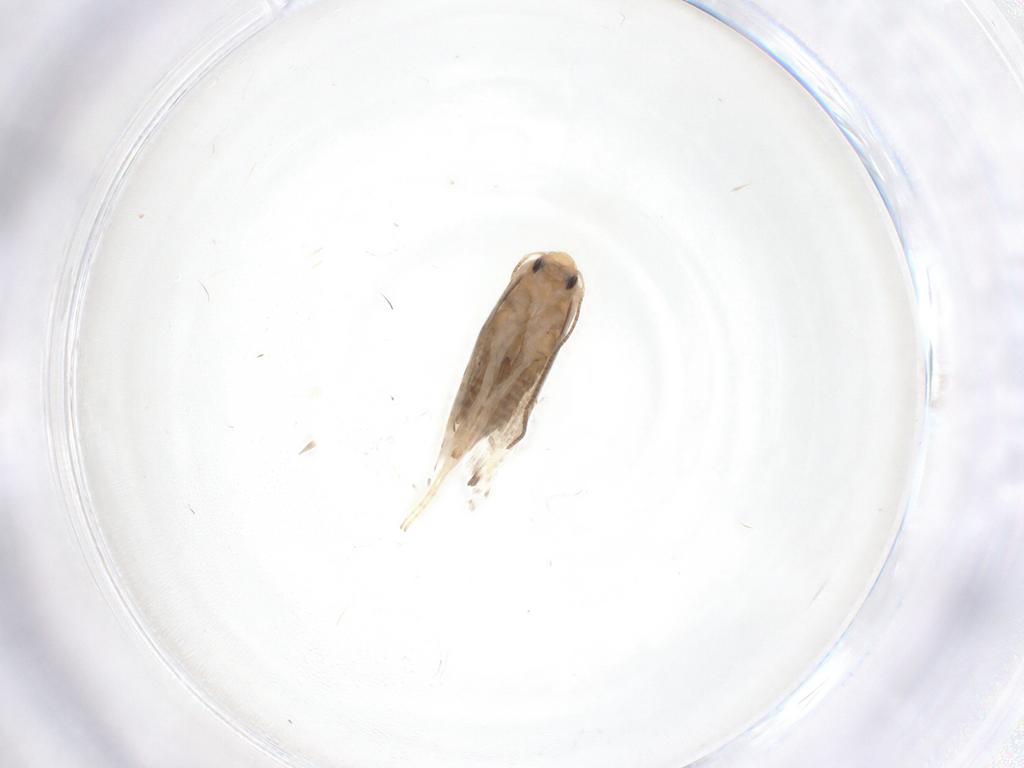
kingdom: Animalia
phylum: Arthropoda
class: Insecta
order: Lepidoptera
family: Lyonetiidae
